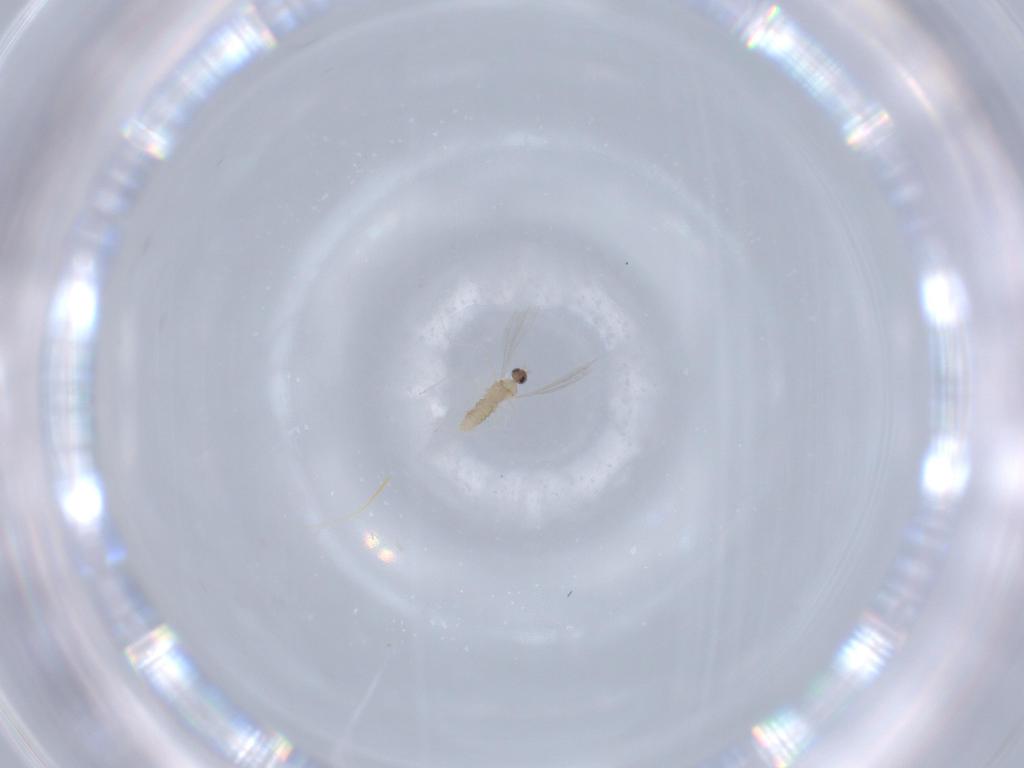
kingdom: Animalia
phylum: Arthropoda
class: Insecta
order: Diptera
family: Cecidomyiidae
